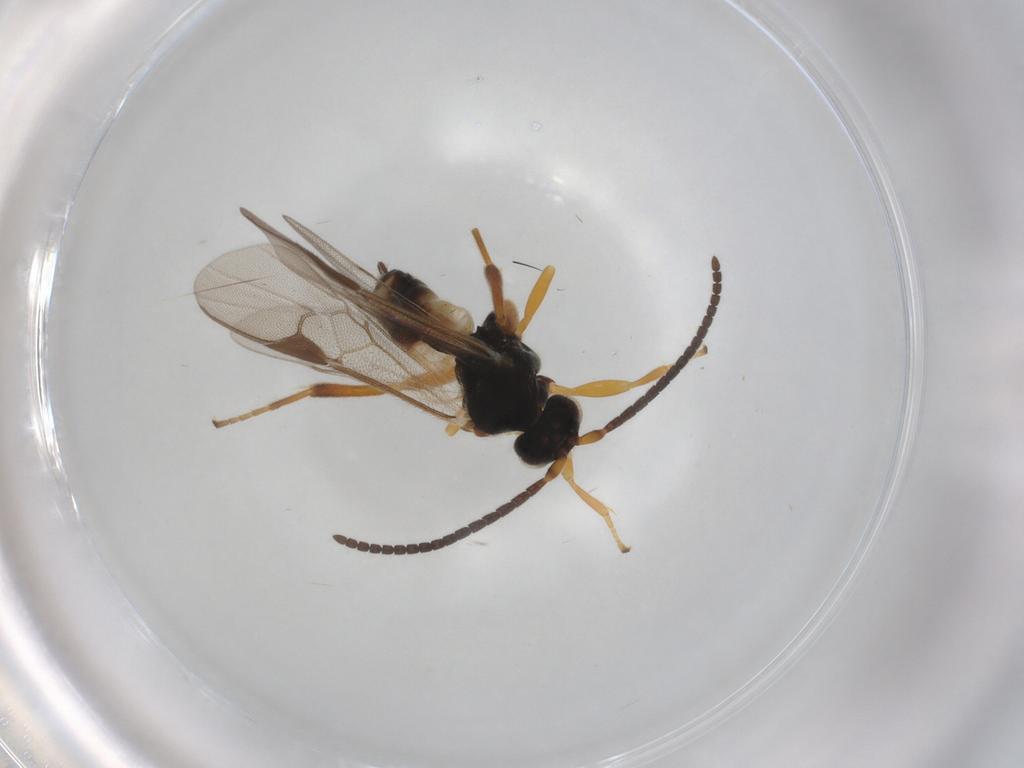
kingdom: Animalia
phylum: Arthropoda
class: Insecta
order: Hymenoptera
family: Braconidae
